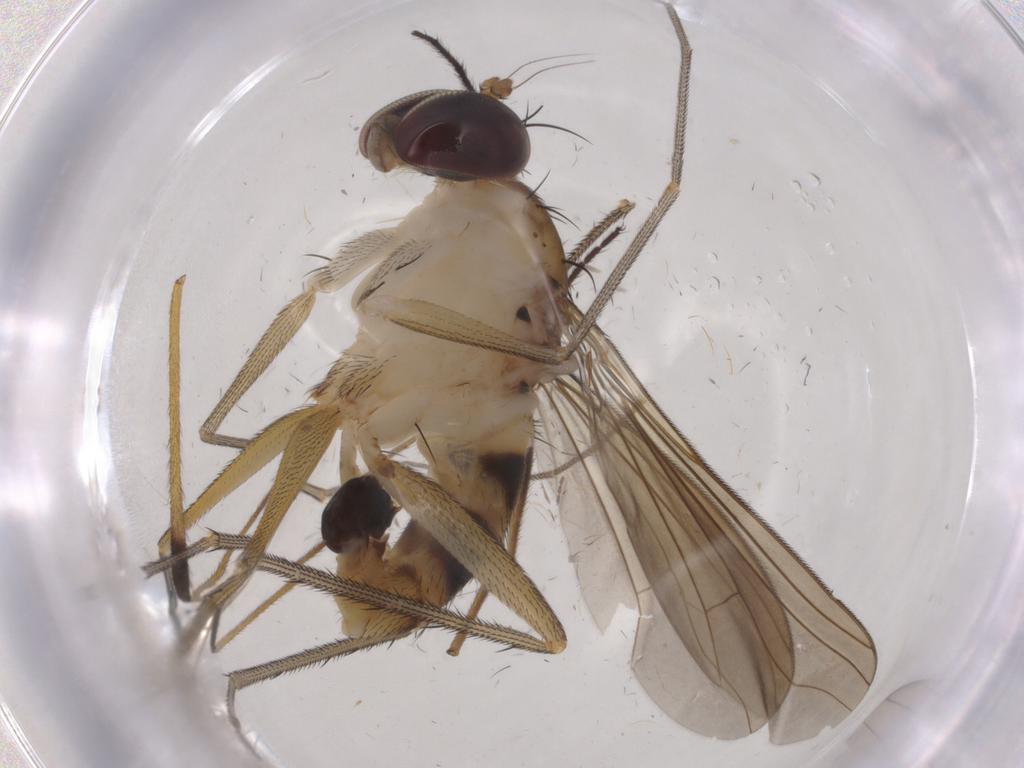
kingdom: Animalia
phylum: Arthropoda
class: Insecta
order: Diptera
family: Dolichopodidae
